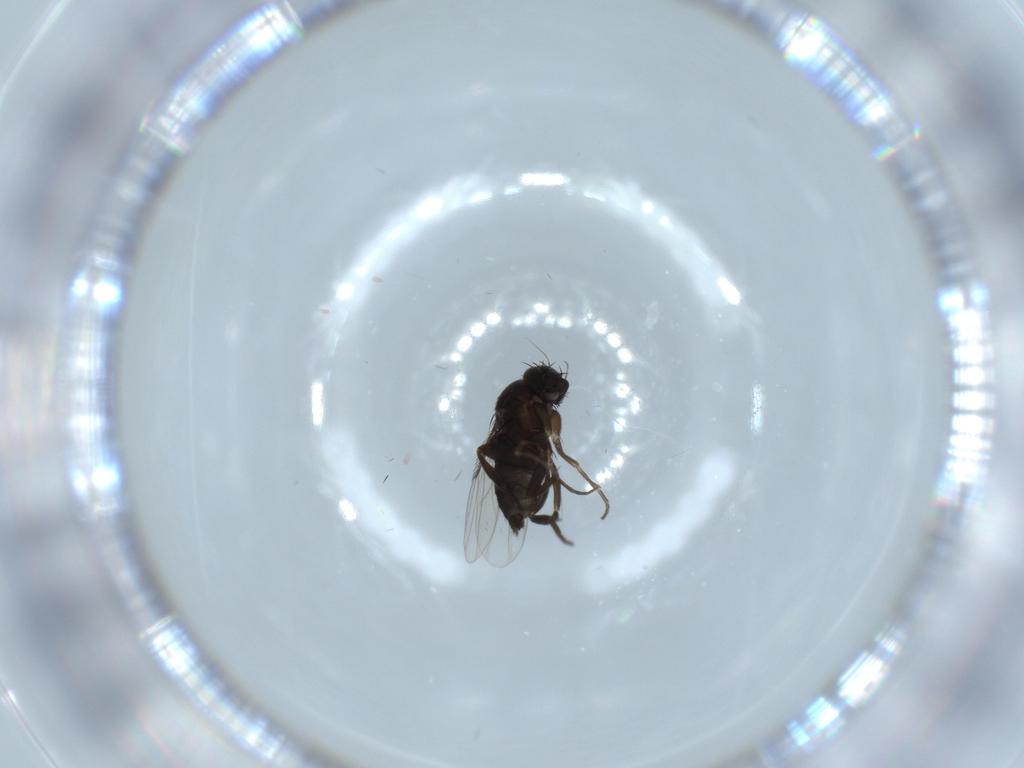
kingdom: Animalia
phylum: Arthropoda
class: Insecta
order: Diptera
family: Phoridae
